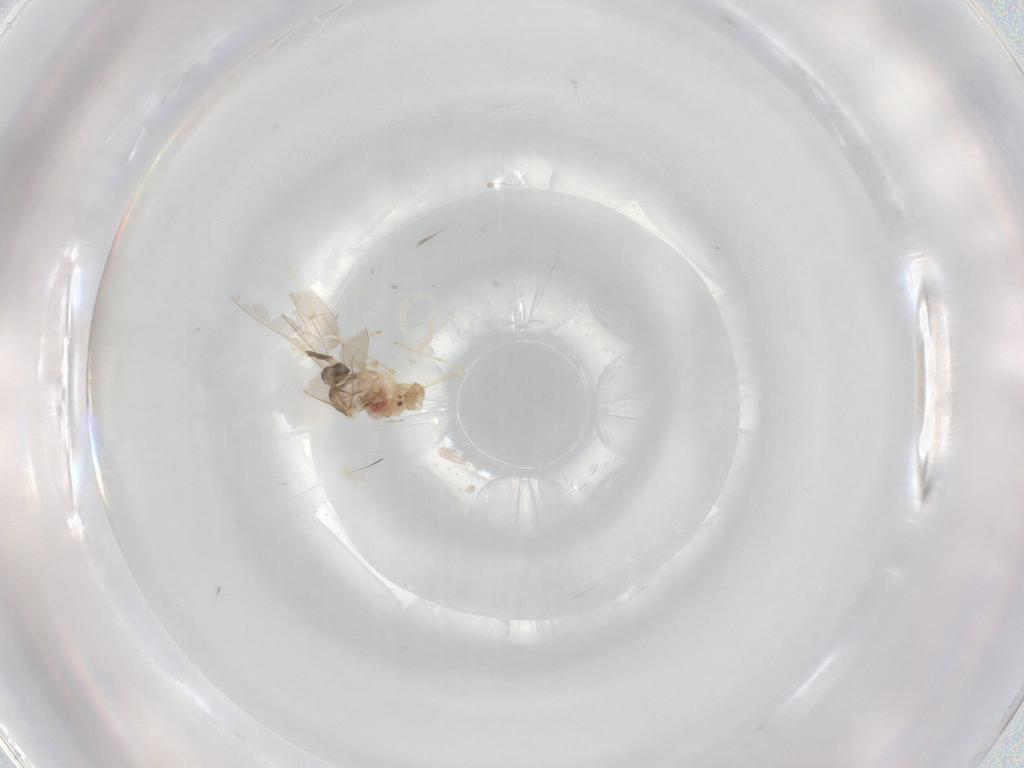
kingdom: Animalia
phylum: Arthropoda
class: Insecta
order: Diptera
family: Cecidomyiidae
